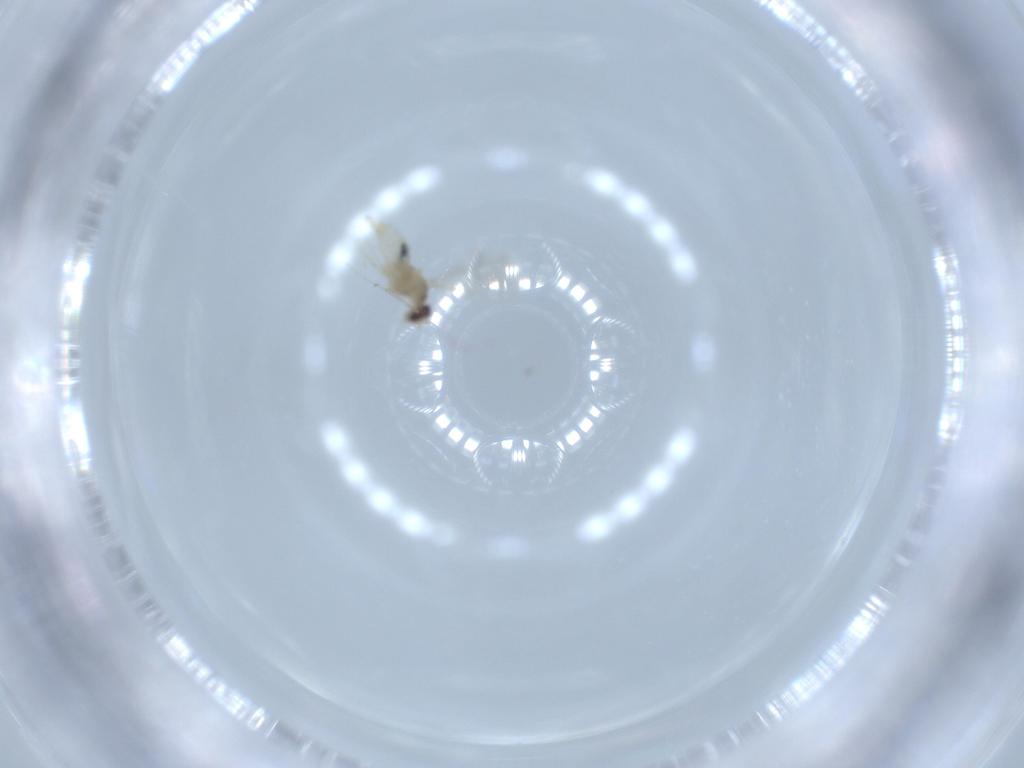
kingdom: Animalia
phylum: Arthropoda
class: Insecta
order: Diptera
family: Cecidomyiidae
